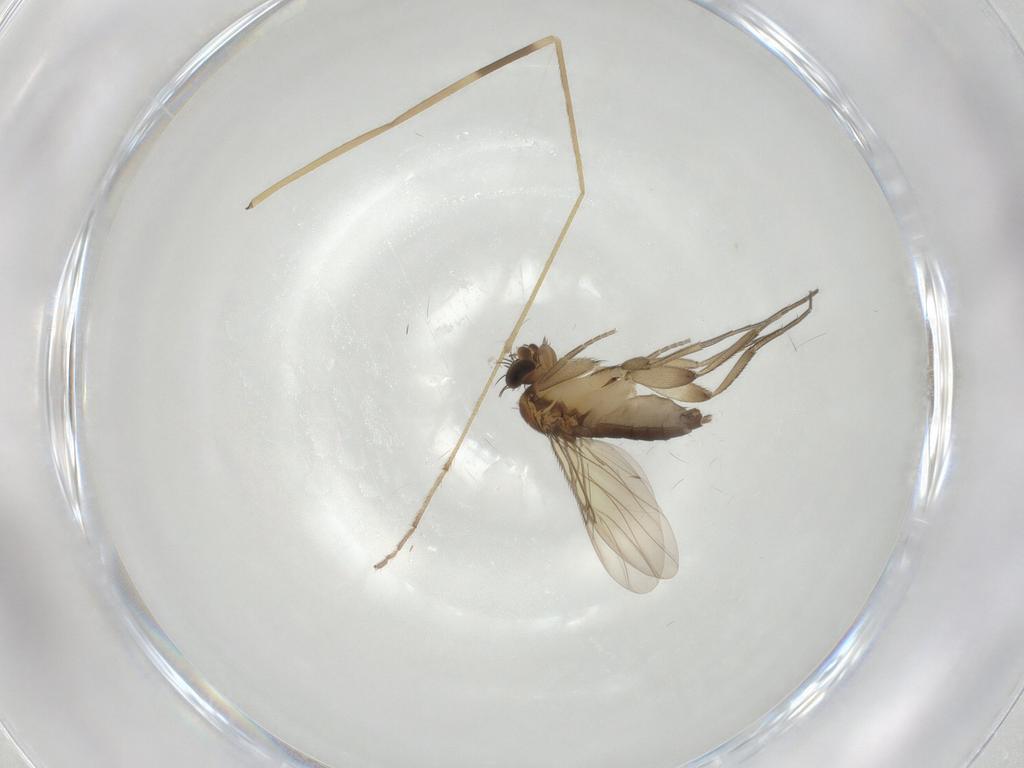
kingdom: Animalia
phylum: Arthropoda
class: Insecta
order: Diptera
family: Limoniidae
